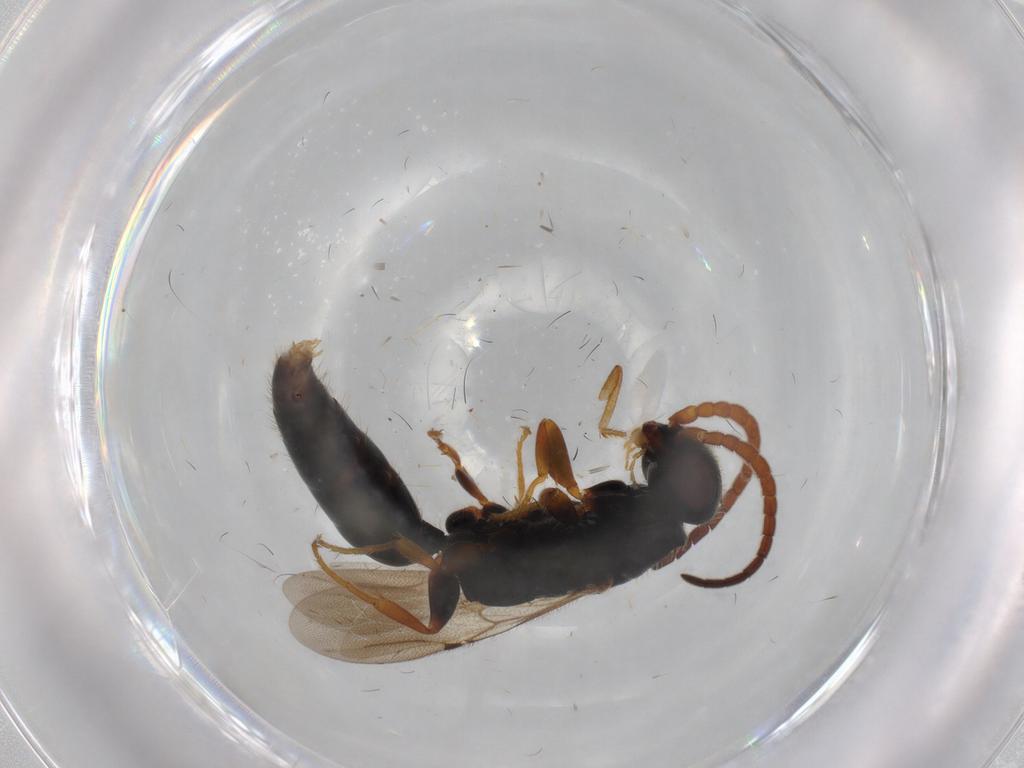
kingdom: Animalia
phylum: Arthropoda
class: Insecta
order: Hymenoptera
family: Bethylidae
